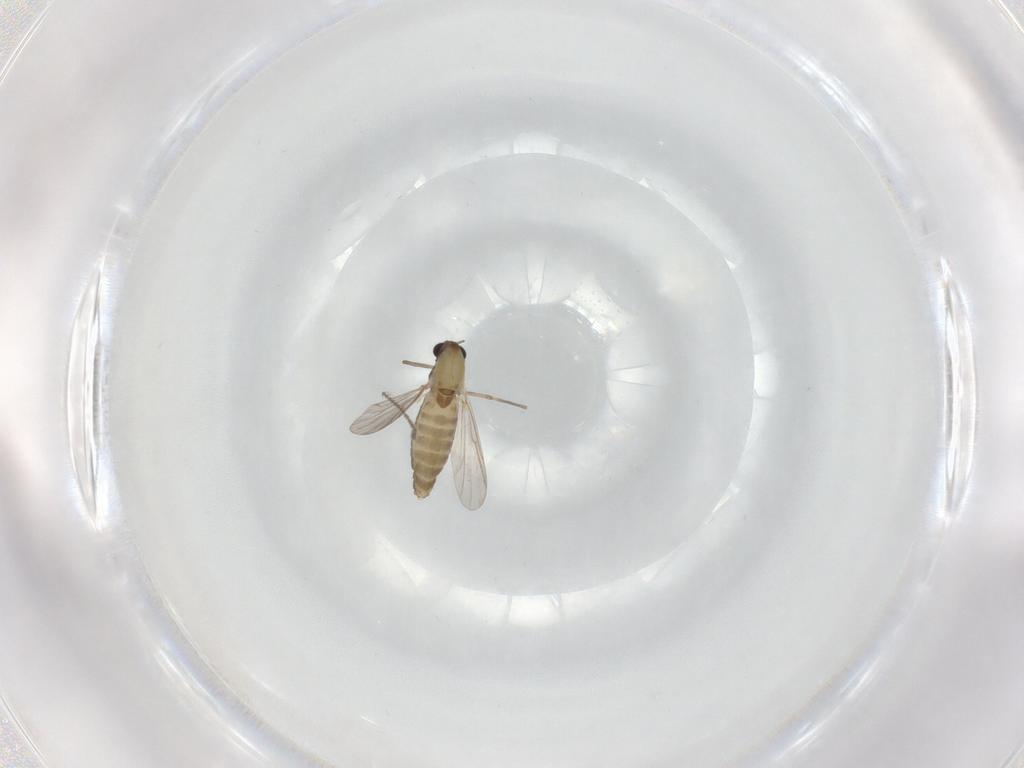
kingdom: Animalia
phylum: Arthropoda
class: Insecta
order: Diptera
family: Chironomidae
